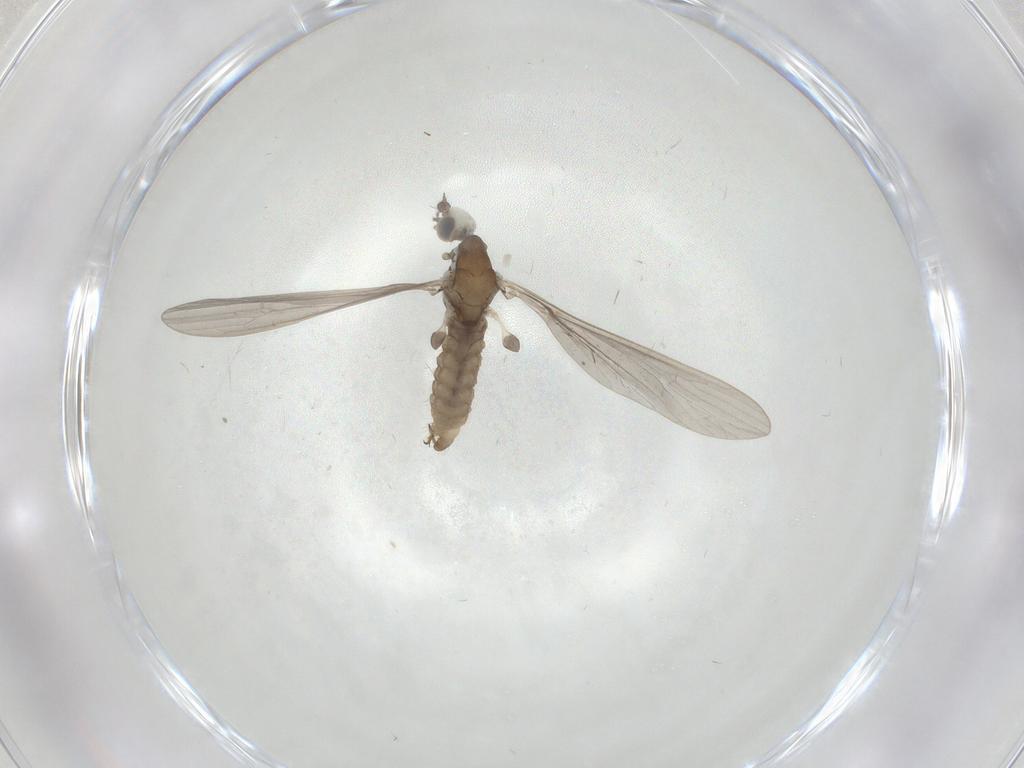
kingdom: Animalia
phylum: Arthropoda
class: Insecta
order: Diptera
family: Limoniidae
